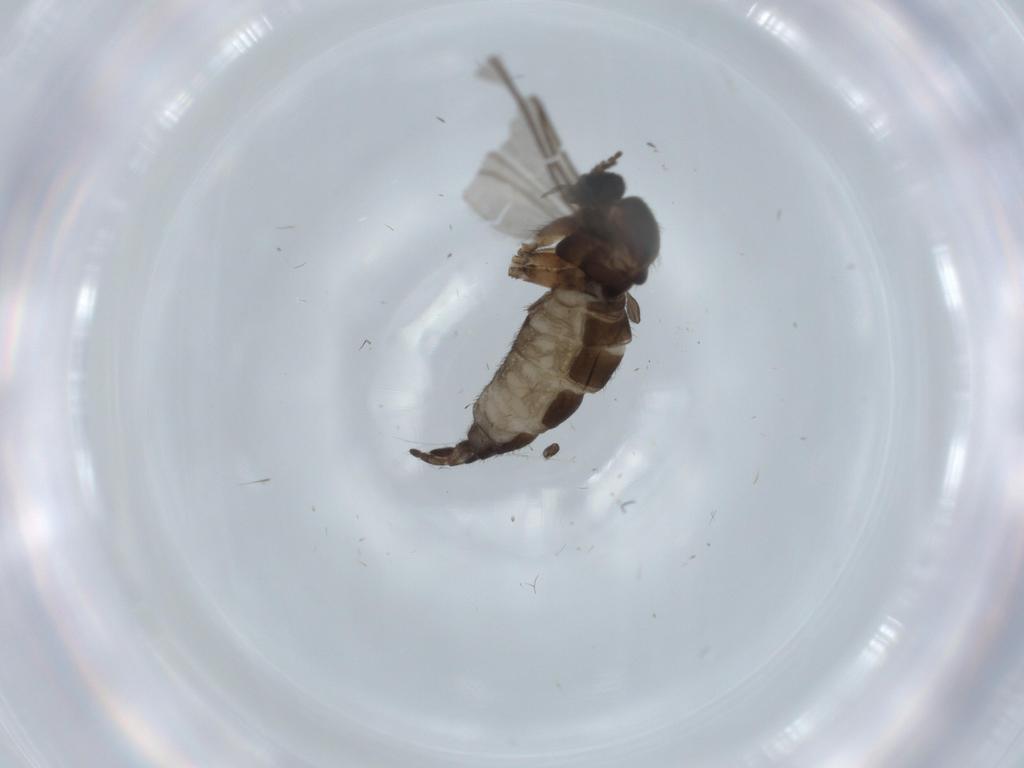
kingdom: Animalia
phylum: Arthropoda
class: Insecta
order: Diptera
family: Sciaridae
